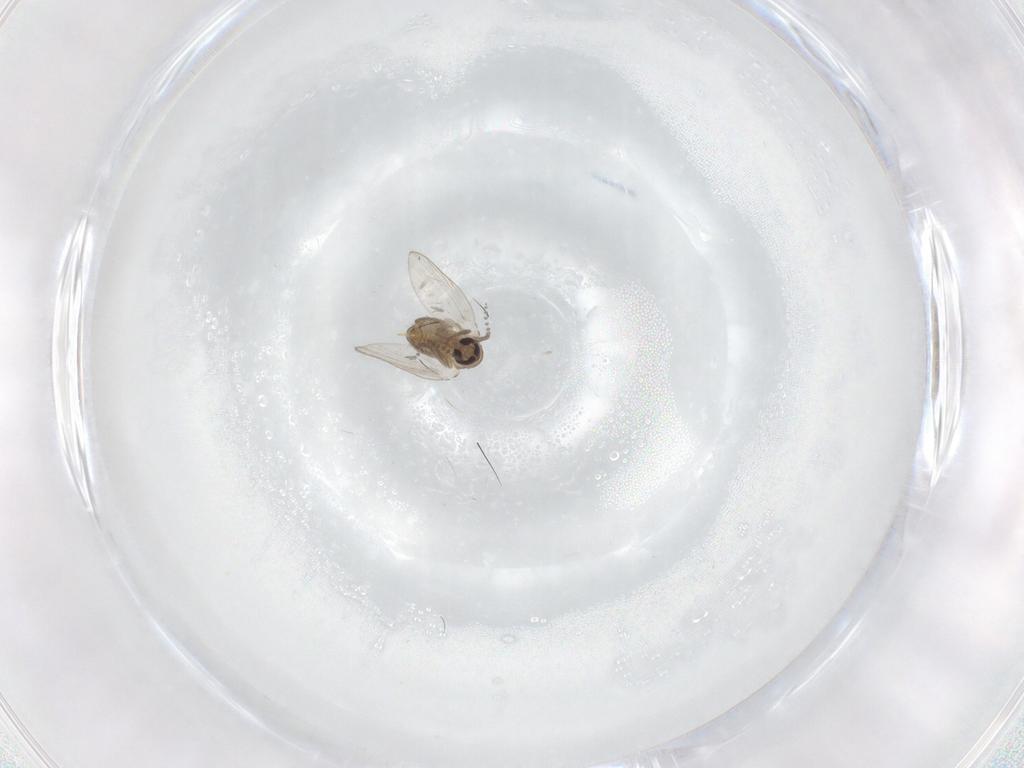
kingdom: Animalia
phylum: Arthropoda
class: Insecta
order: Diptera
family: Psychodidae
